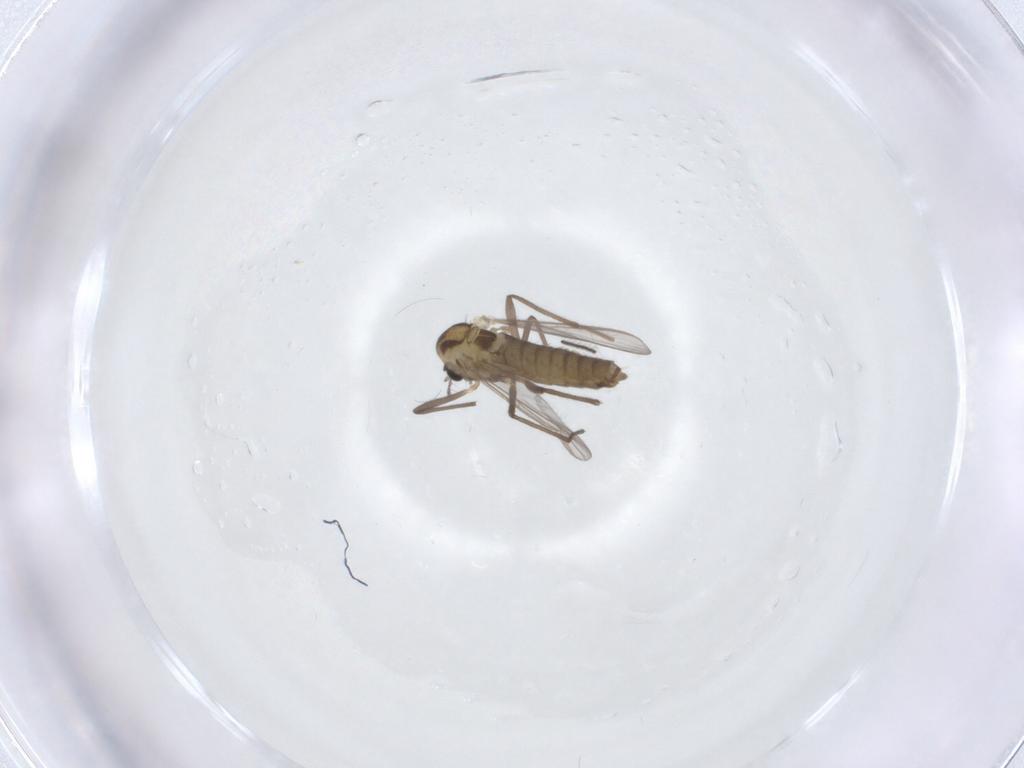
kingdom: Animalia
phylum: Arthropoda
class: Insecta
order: Diptera
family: Chironomidae
